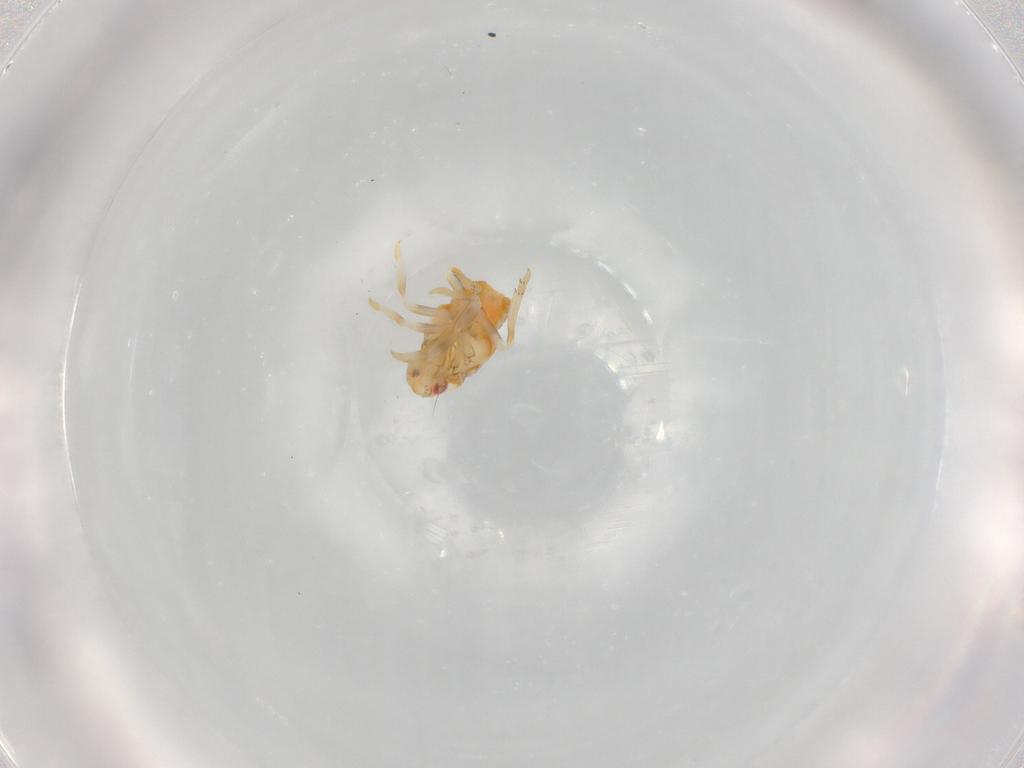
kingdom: Animalia
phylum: Arthropoda
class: Insecta
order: Hemiptera
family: Flatidae
